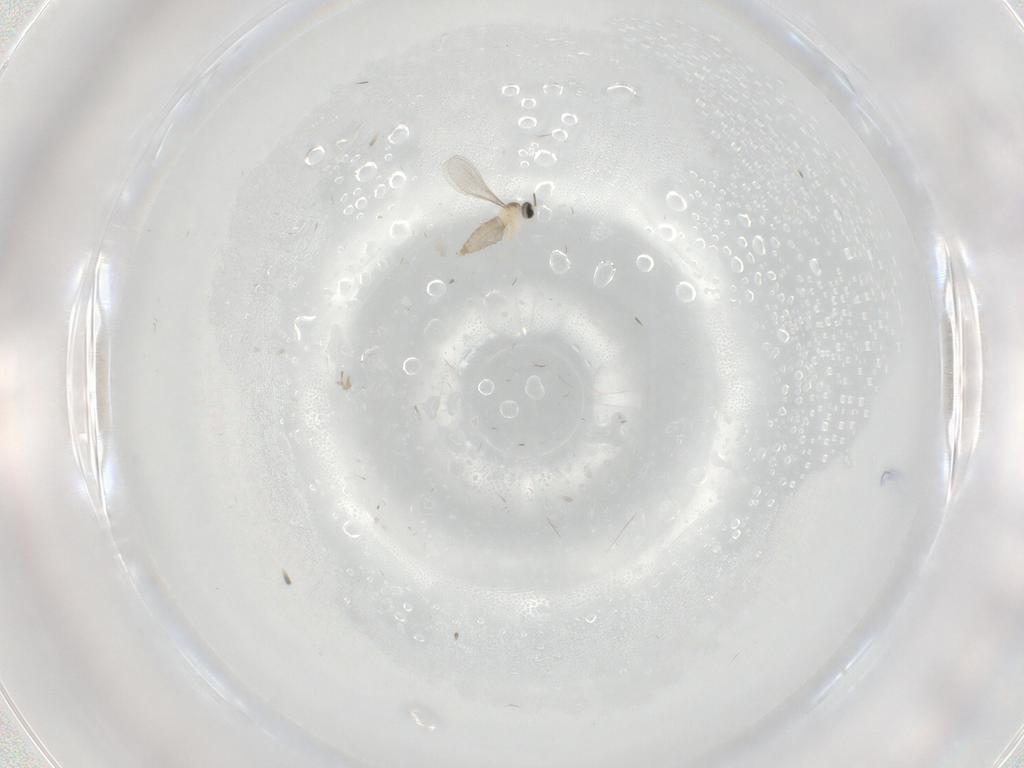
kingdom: Animalia
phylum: Arthropoda
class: Insecta
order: Diptera
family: Cecidomyiidae
